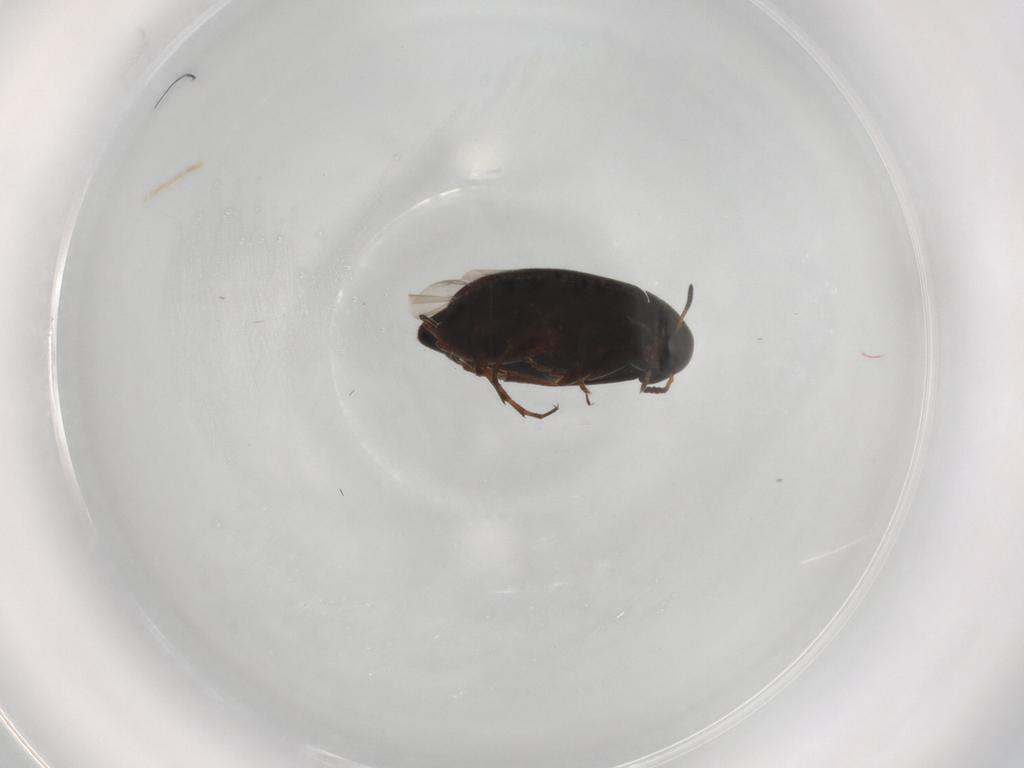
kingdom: Animalia
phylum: Arthropoda
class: Insecta
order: Coleoptera
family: Scraptiidae
